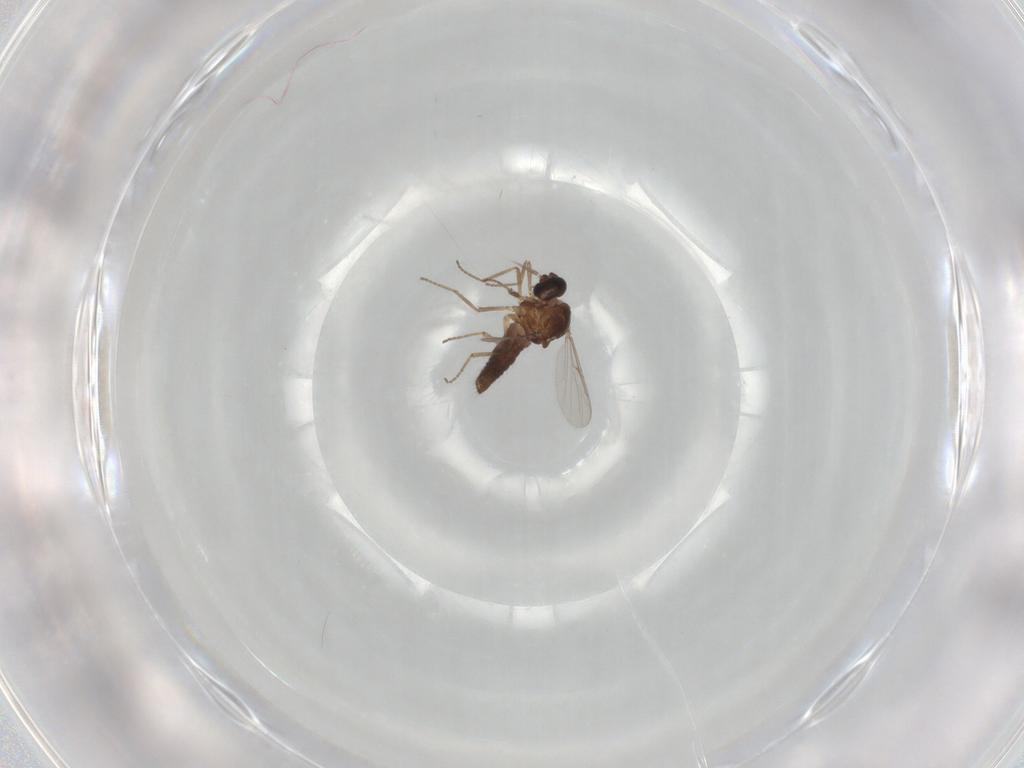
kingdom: Animalia
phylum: Arthropoda
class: Insecta
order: Diptera
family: Ceratopogonidae
